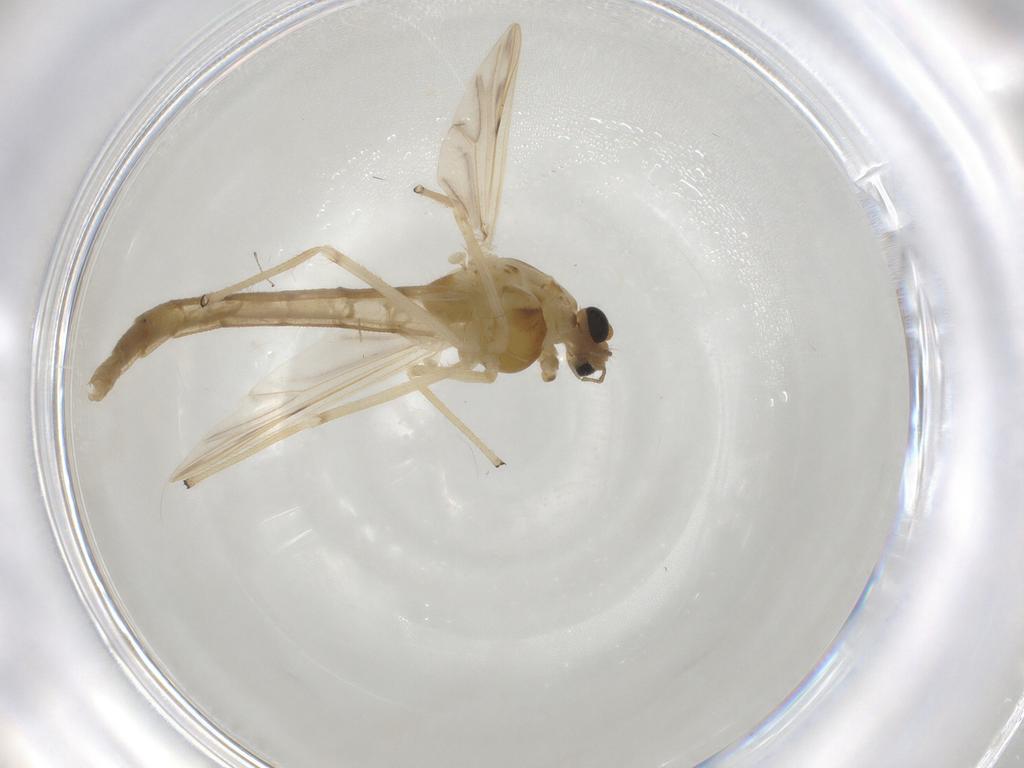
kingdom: Animalia
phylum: Arthropoda
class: Insecta
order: Diptera
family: Chironomidae
